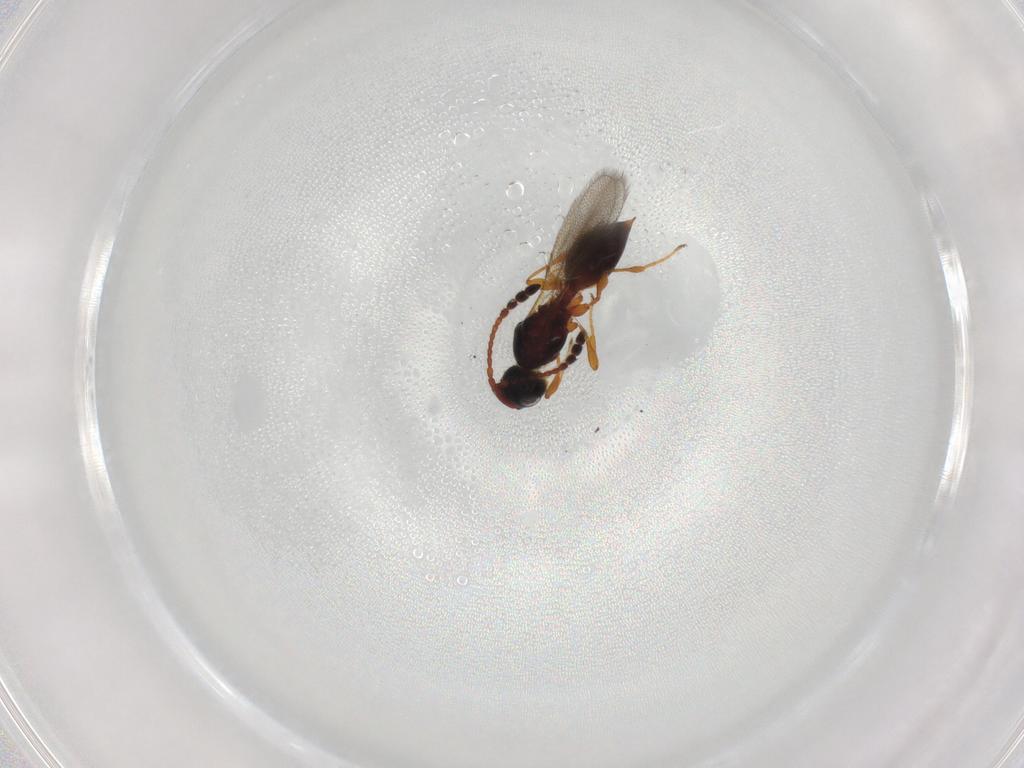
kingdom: Animalia
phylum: Arthropoda
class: Insecta
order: Hymenoptera
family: Diapriidae
